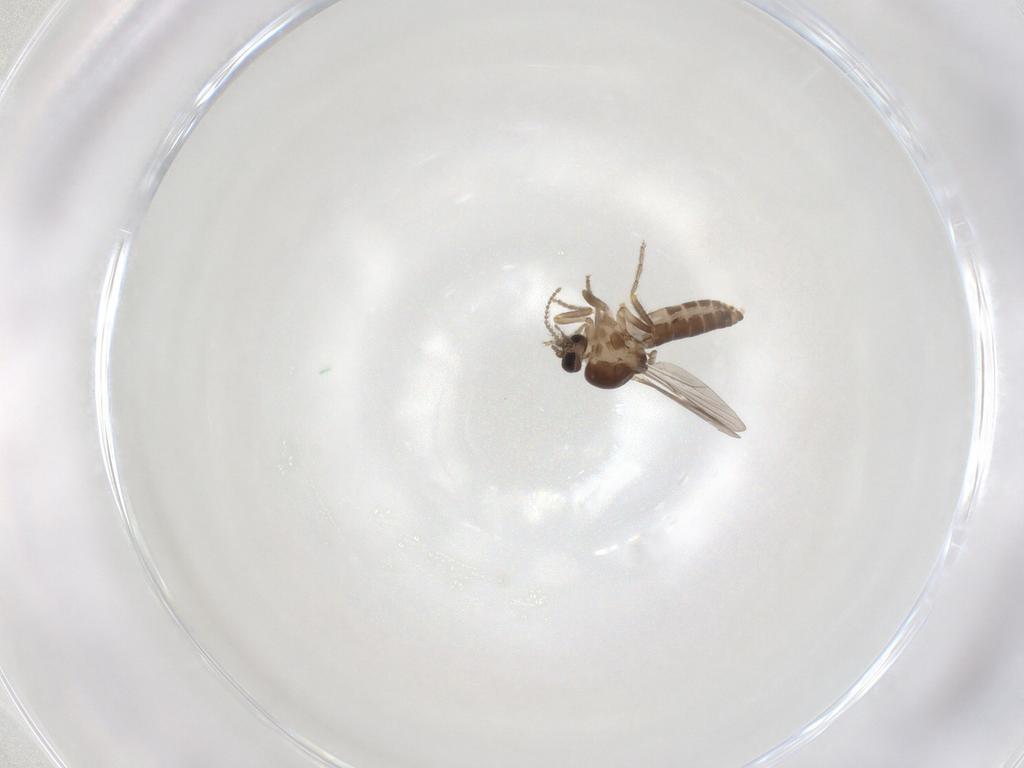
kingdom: Animalia
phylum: Arthropoda
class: Insecta
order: Diptera
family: Ceratopogonidae
